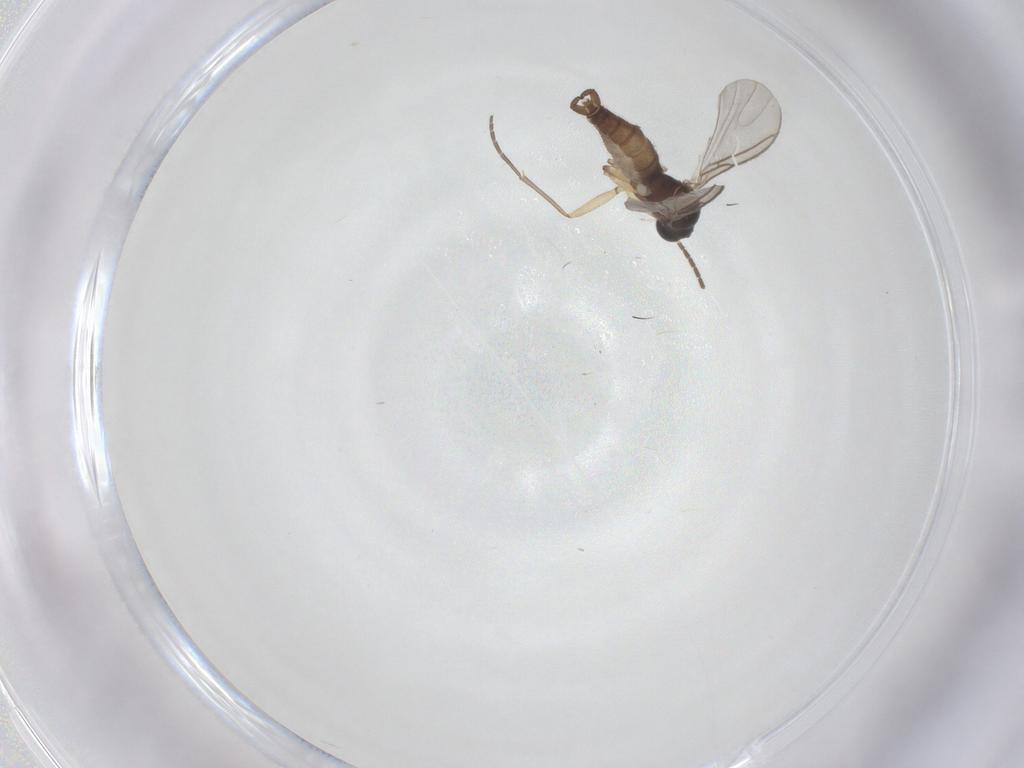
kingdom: Animalia
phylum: Arthropoda
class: Insecta
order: Diptera
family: Sciaridae
